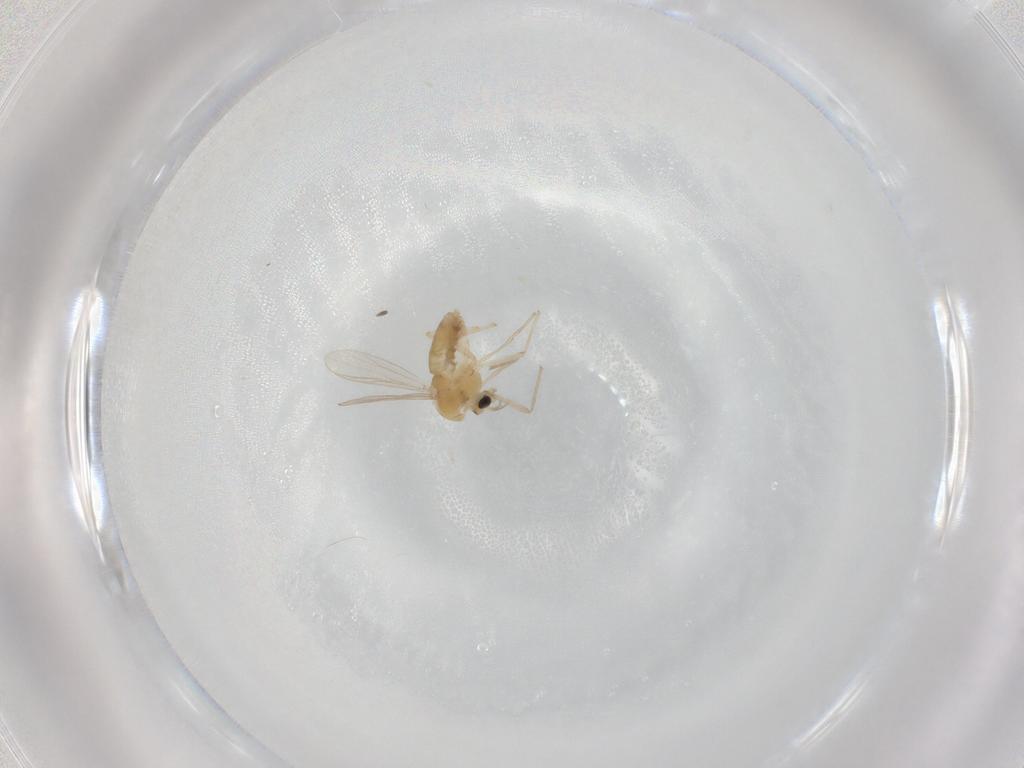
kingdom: Animalia
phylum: Arthropoda
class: Insecta
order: Diptera
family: Chironomidae
